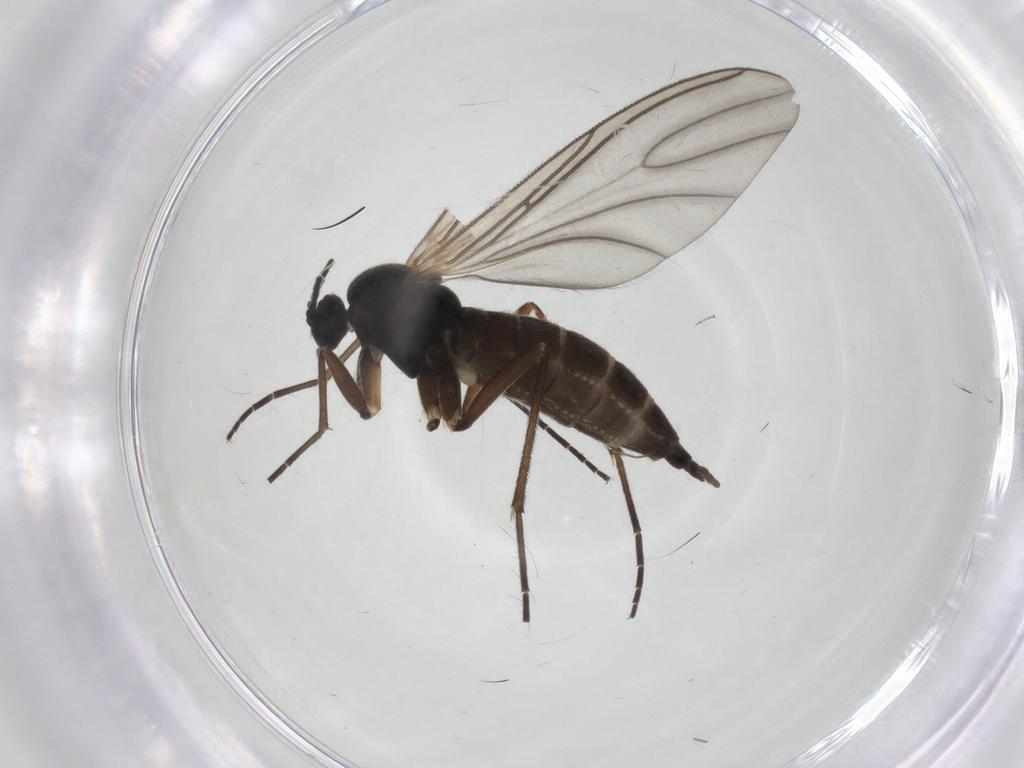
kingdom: Animalia
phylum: Arthropoda
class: Insecta
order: Diptera
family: Sciaridae
